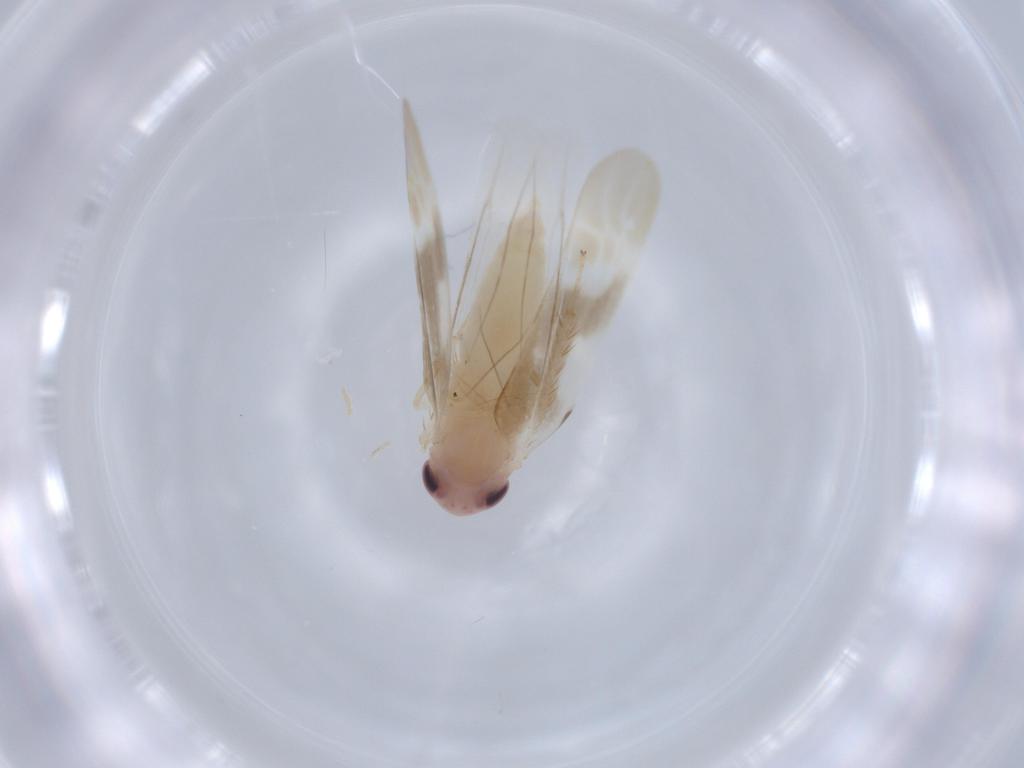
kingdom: Animalia
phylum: Arthropoda
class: Insecta
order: Hemiptera
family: Cicadellidae
